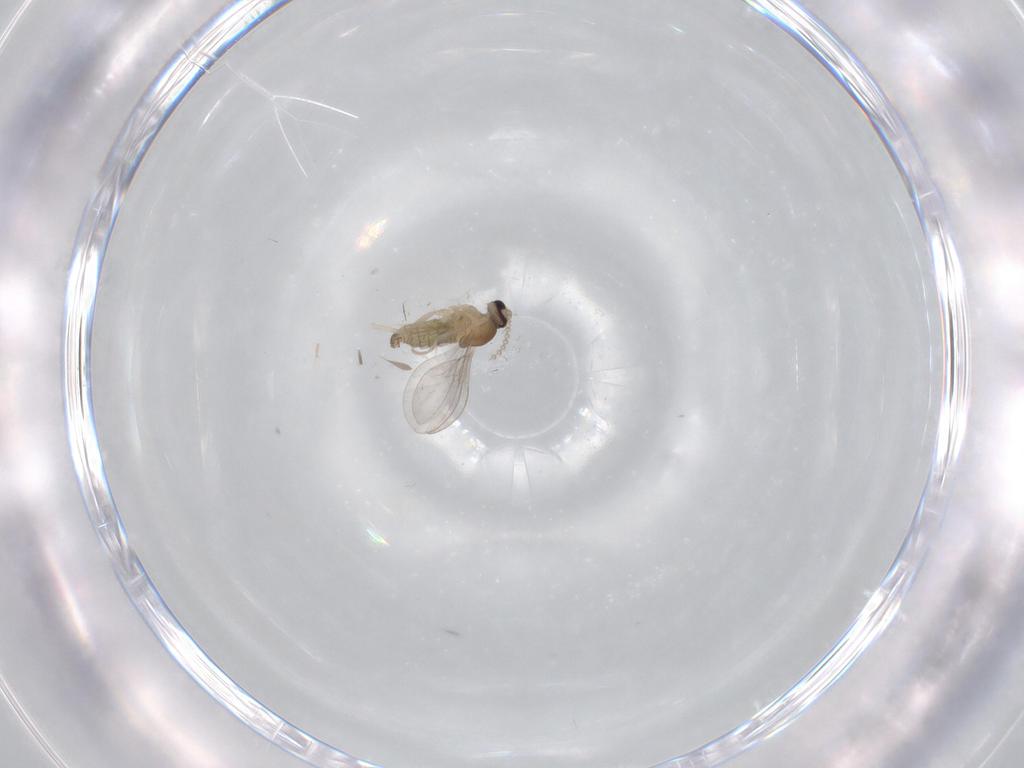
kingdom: Animalia
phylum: Arthropoda
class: Insecta
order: Diptera
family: Cecidomyiidae
